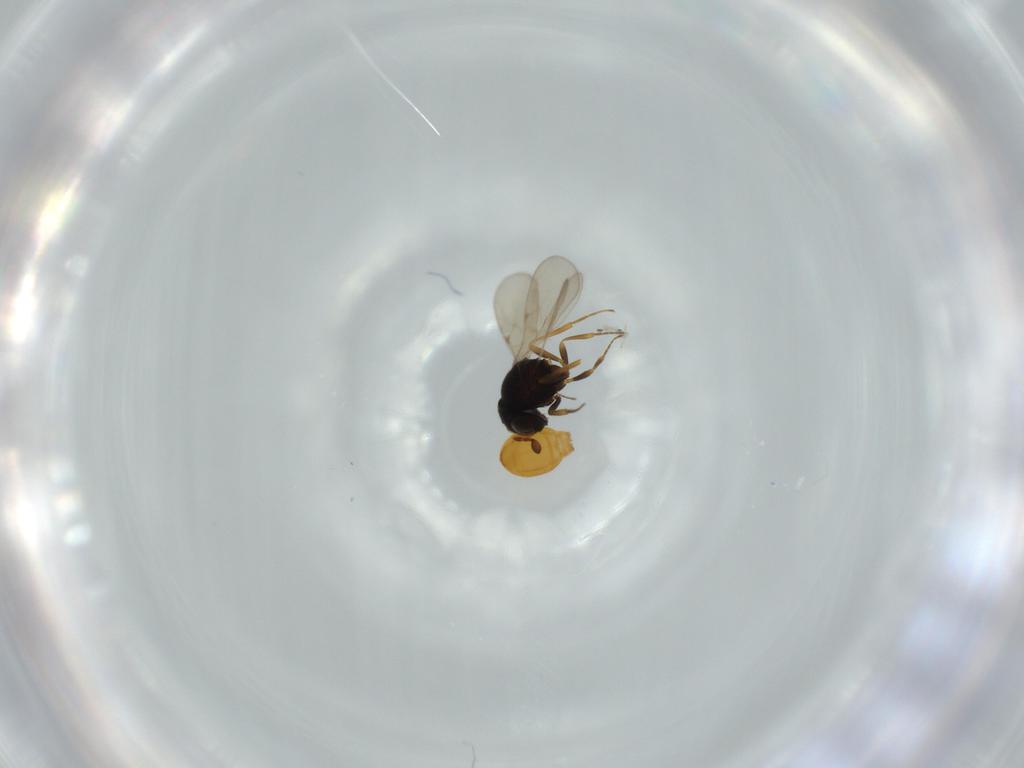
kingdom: Animalia
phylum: Arthropoda
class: Insecta
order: Hymenoptera
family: Scelionidae
